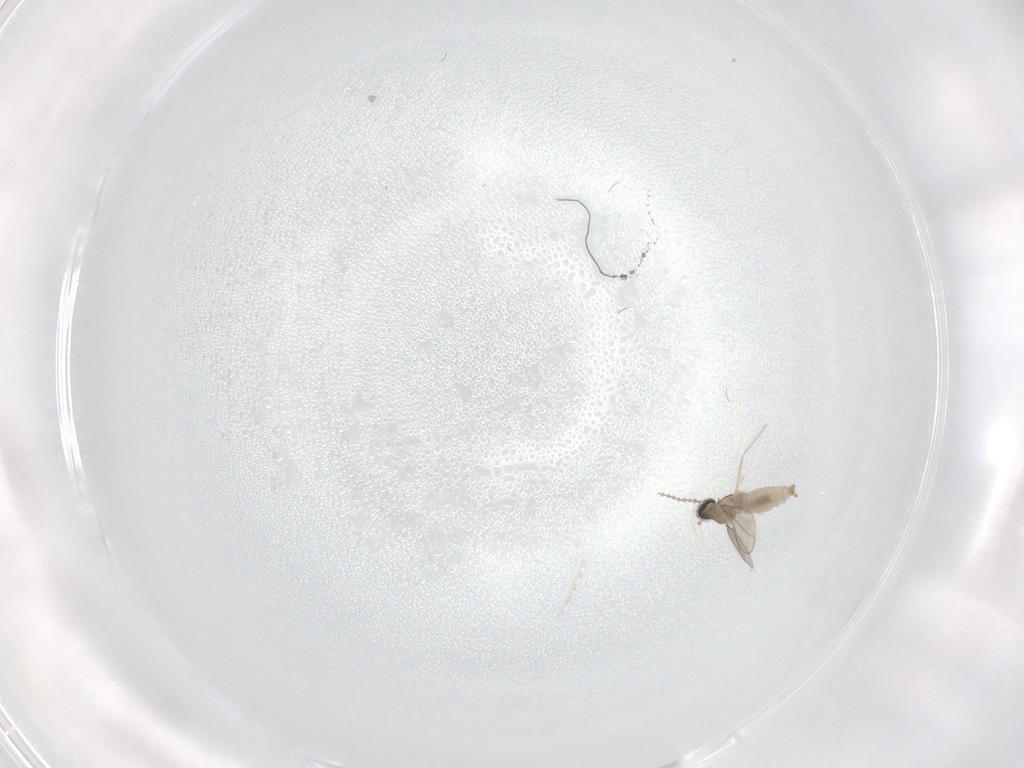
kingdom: Animalia
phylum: Arthropoda
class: Insecta
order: Diptera
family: Cecidomyiidae
